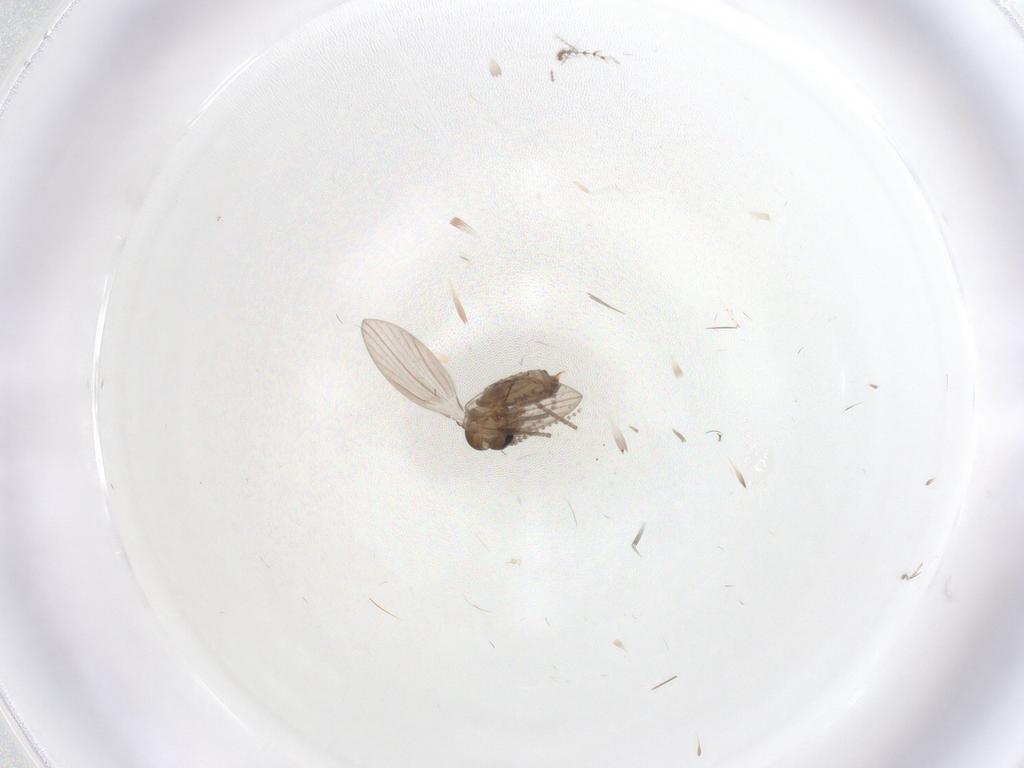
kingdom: Animalia
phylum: Arthropoda
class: Insecta
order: Diptera
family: Psychodidae
